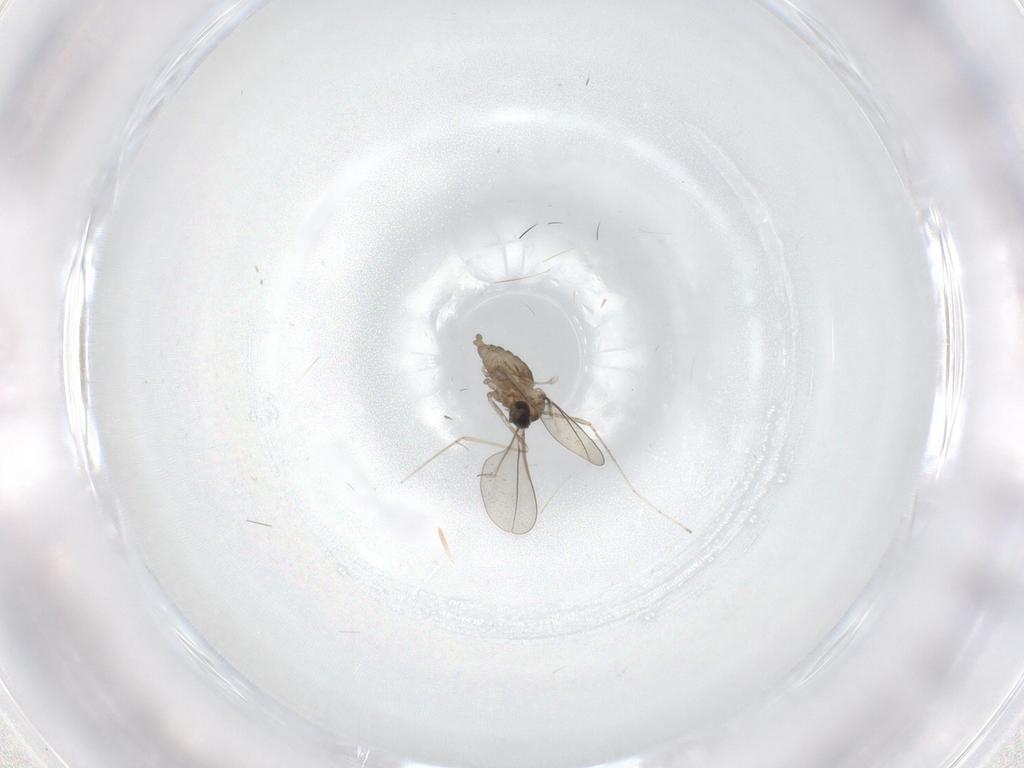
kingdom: Animalia
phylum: Arthropoda
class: Insecta
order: Diptera
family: Cecidomyiidae
